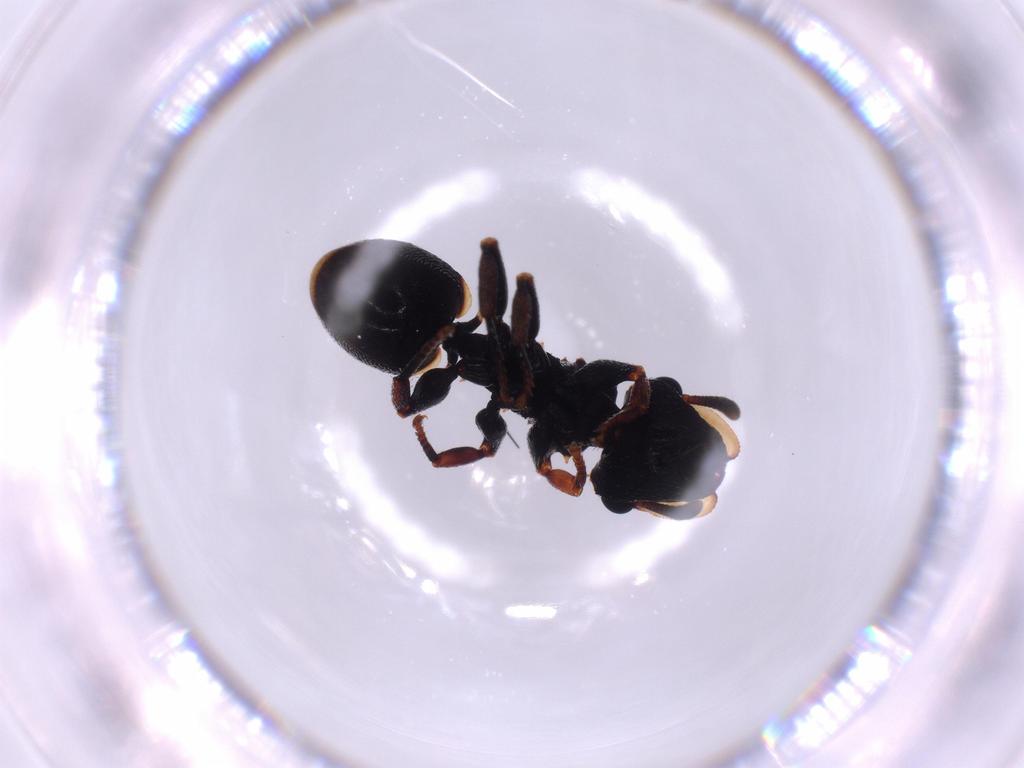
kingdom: Animalia
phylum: Arthropoda
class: Insecta
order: Hymenoptera
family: Formicidae
